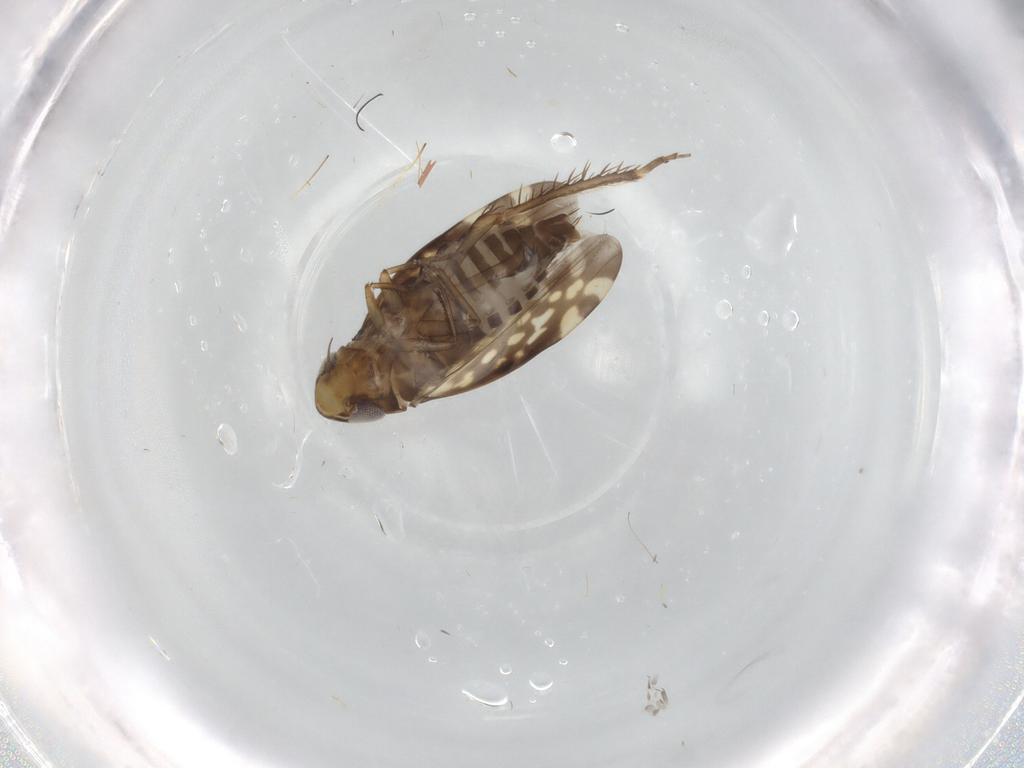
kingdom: Animalia
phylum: Arthropoda
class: Insecta
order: Hemiptera
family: Cicadellidae
